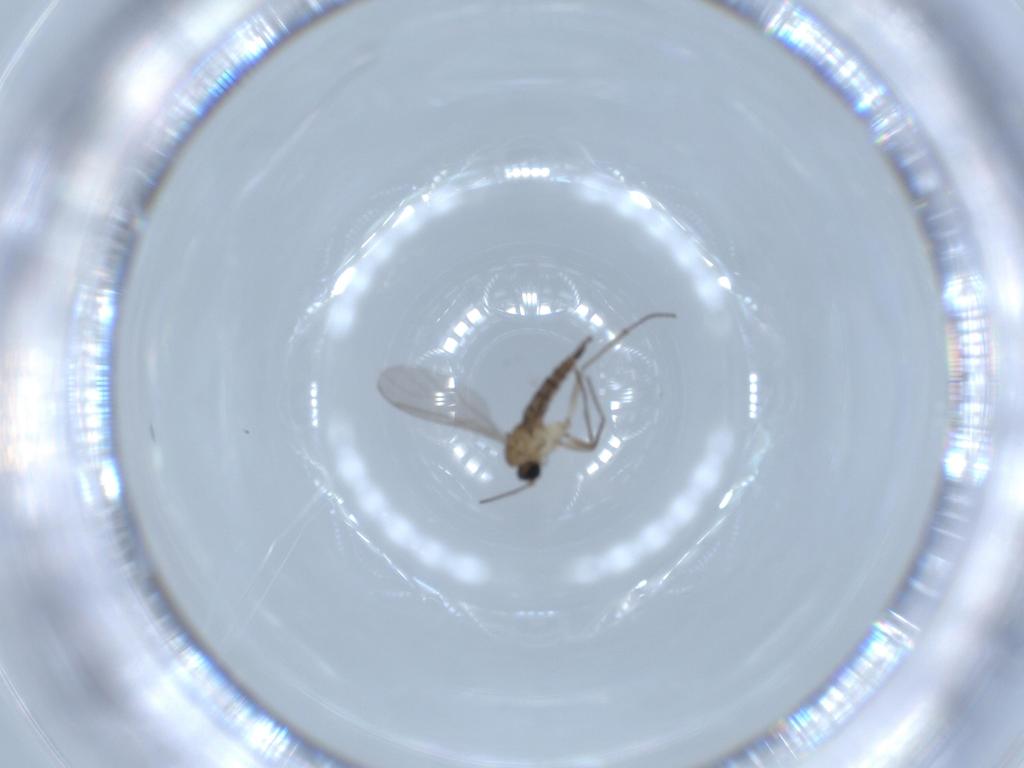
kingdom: Animalia
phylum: Arthropoda
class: Insecta
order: Diptera
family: Sciaridae
